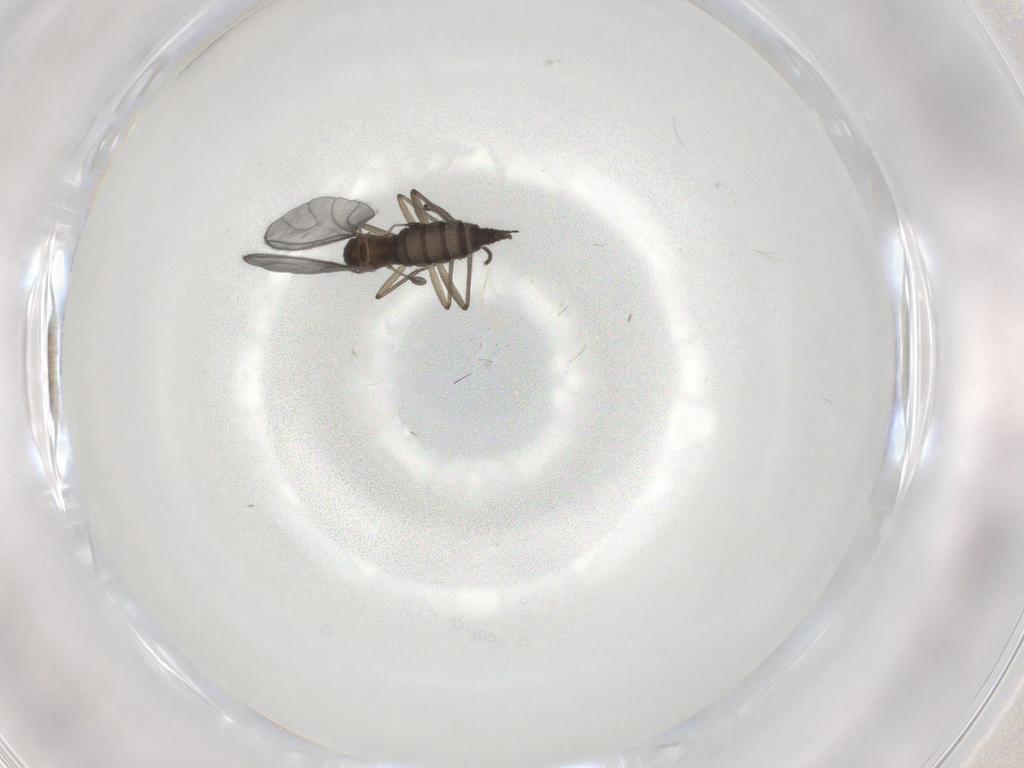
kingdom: Animalia
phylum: Arthropoda
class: Insecta
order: Diptera
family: Sciaridae
